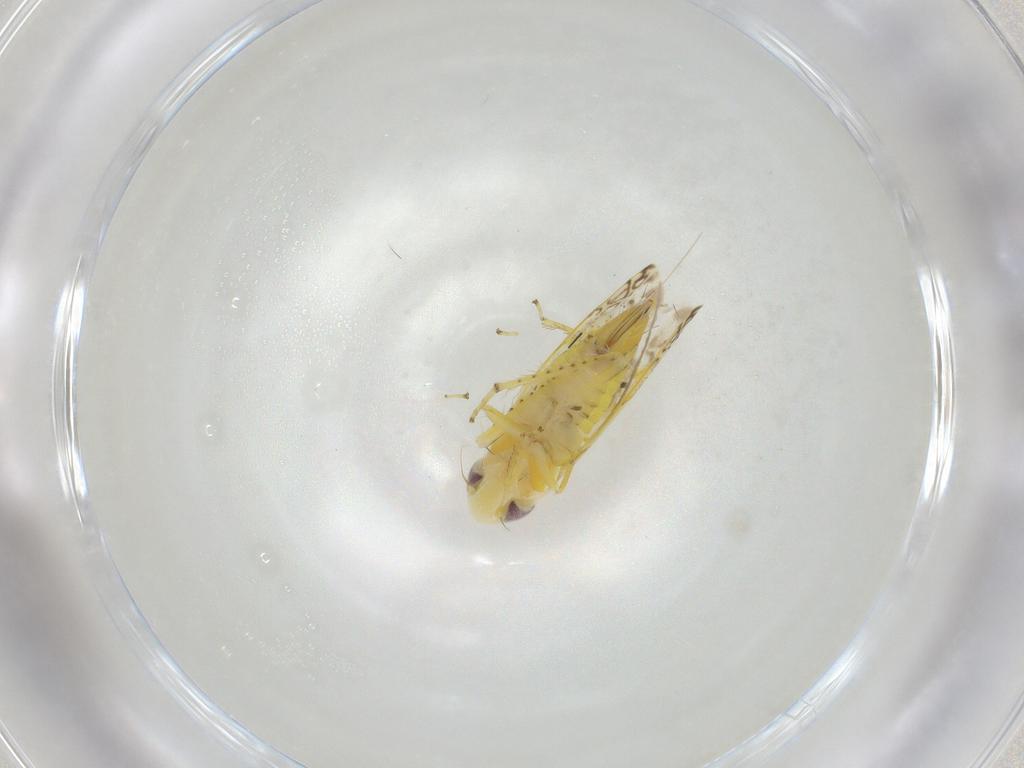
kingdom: Animalia
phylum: Arthropoda
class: Insecta
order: Hemiptera
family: Cicadellidae
